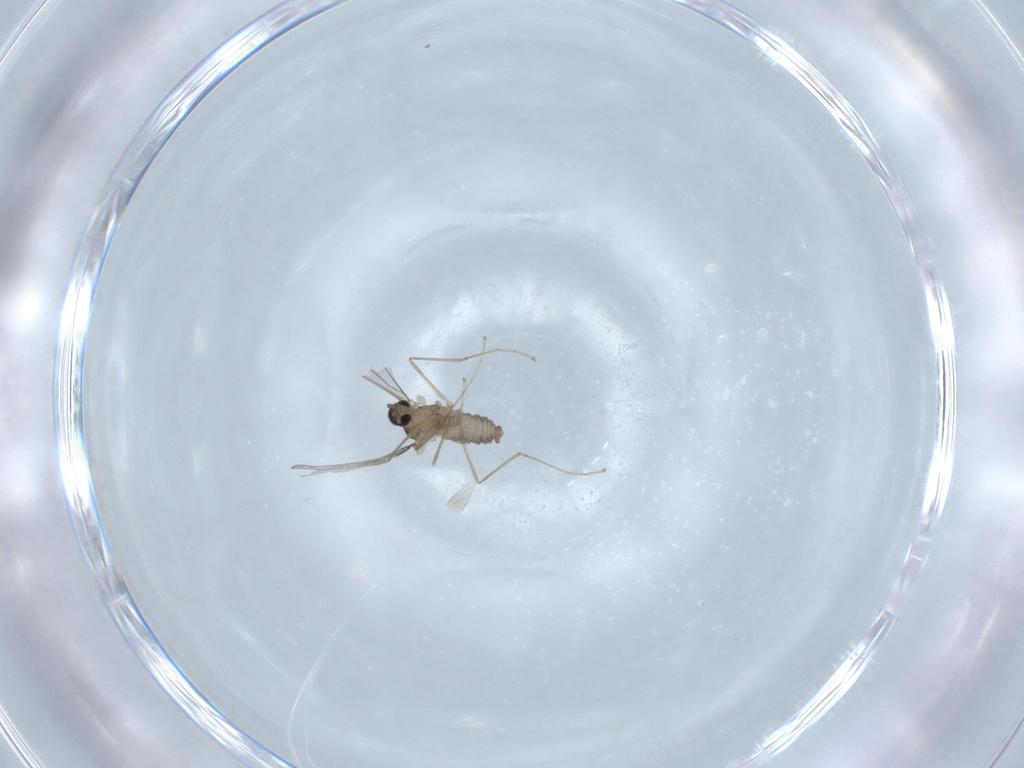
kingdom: Animalia
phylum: Arthropoda
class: Insecta
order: Diptera
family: Cecidomyiidae
